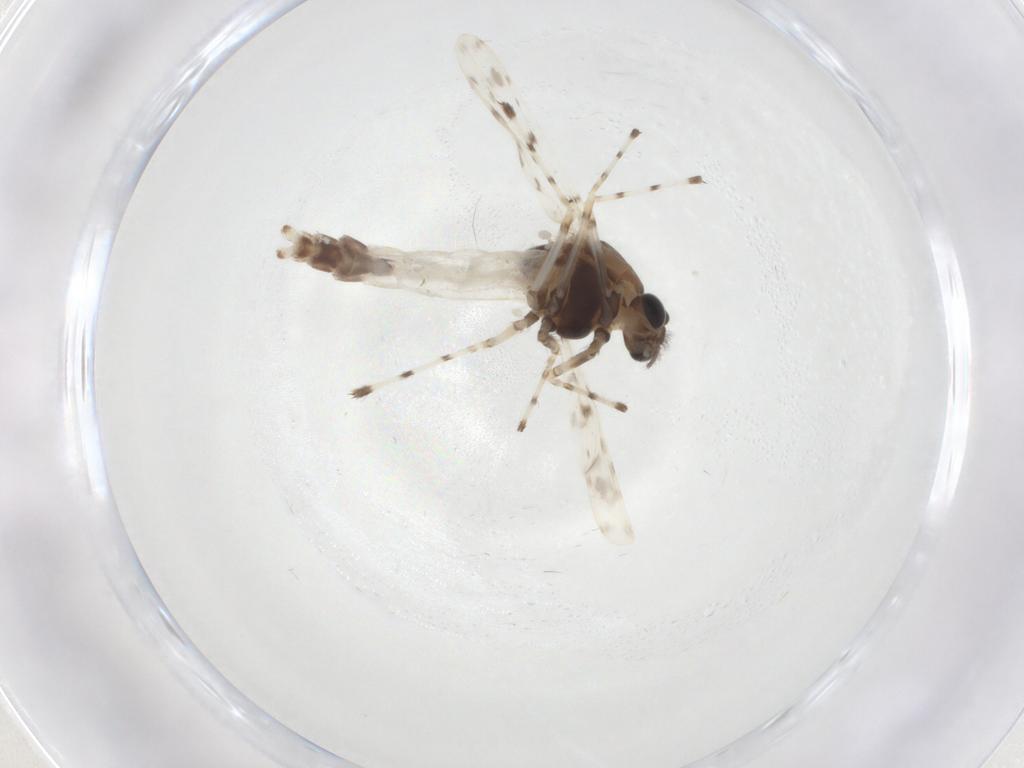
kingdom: Animalia
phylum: Arthropoda
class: Insecta
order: Diptera
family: Chironomidae
